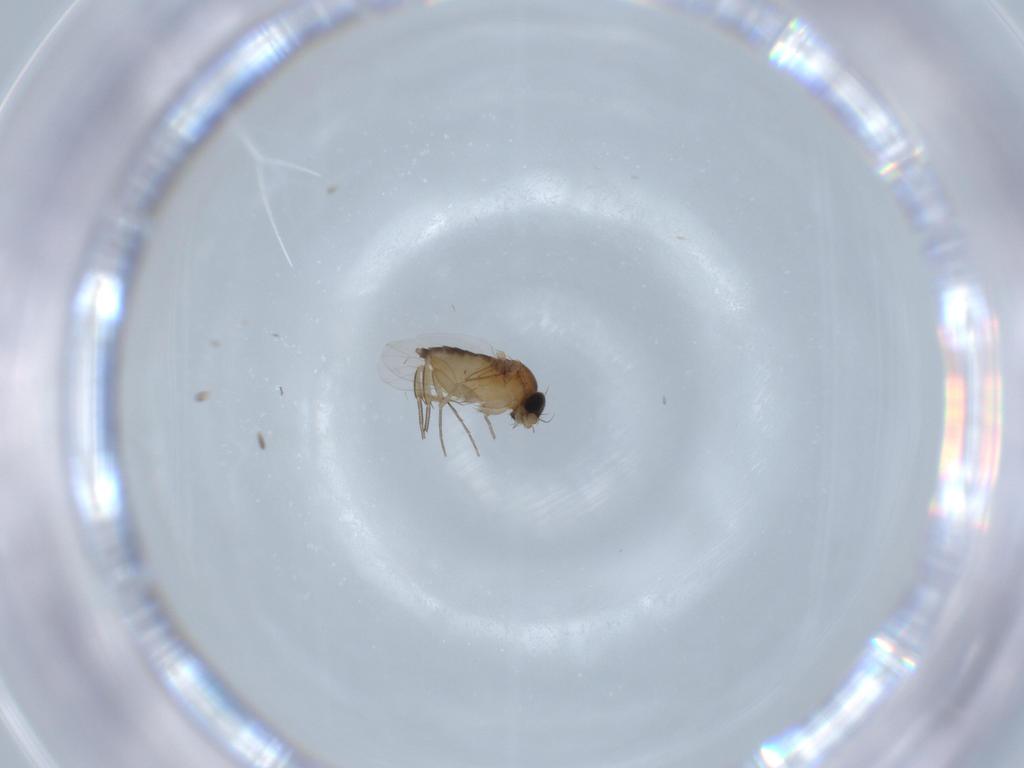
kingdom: Animalia
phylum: Arthropoda
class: Insecta
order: Diptera
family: Phoridae
